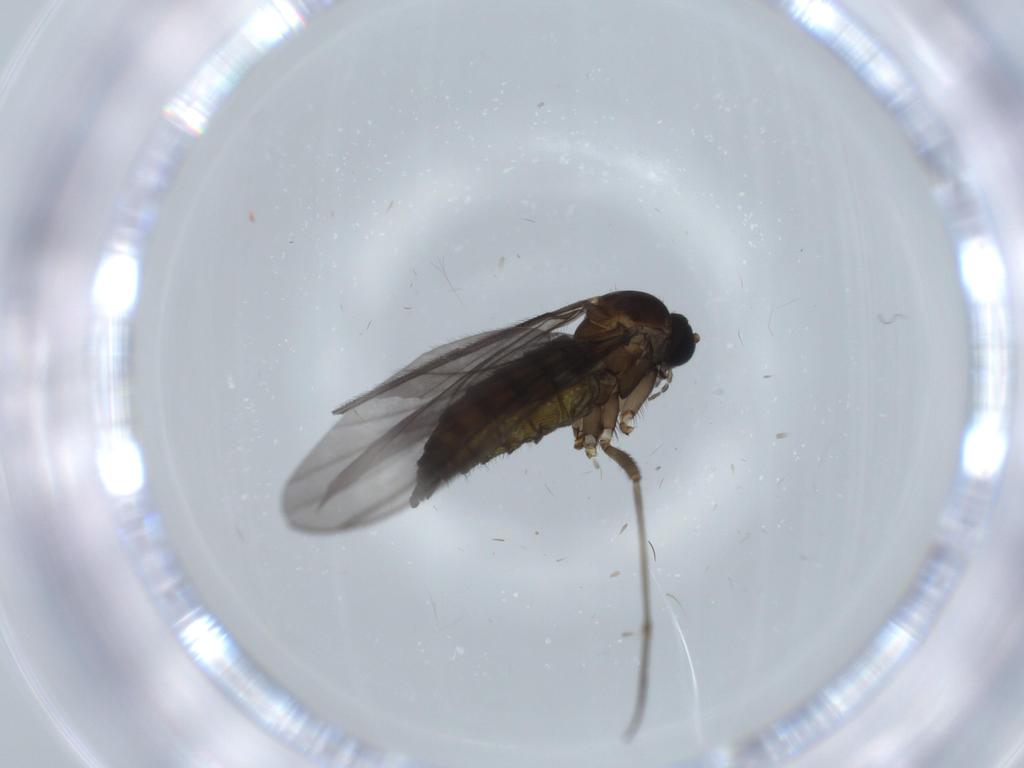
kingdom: Animalia
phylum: Arthropoda
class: Insecta
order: Diptera
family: Sciaridae
